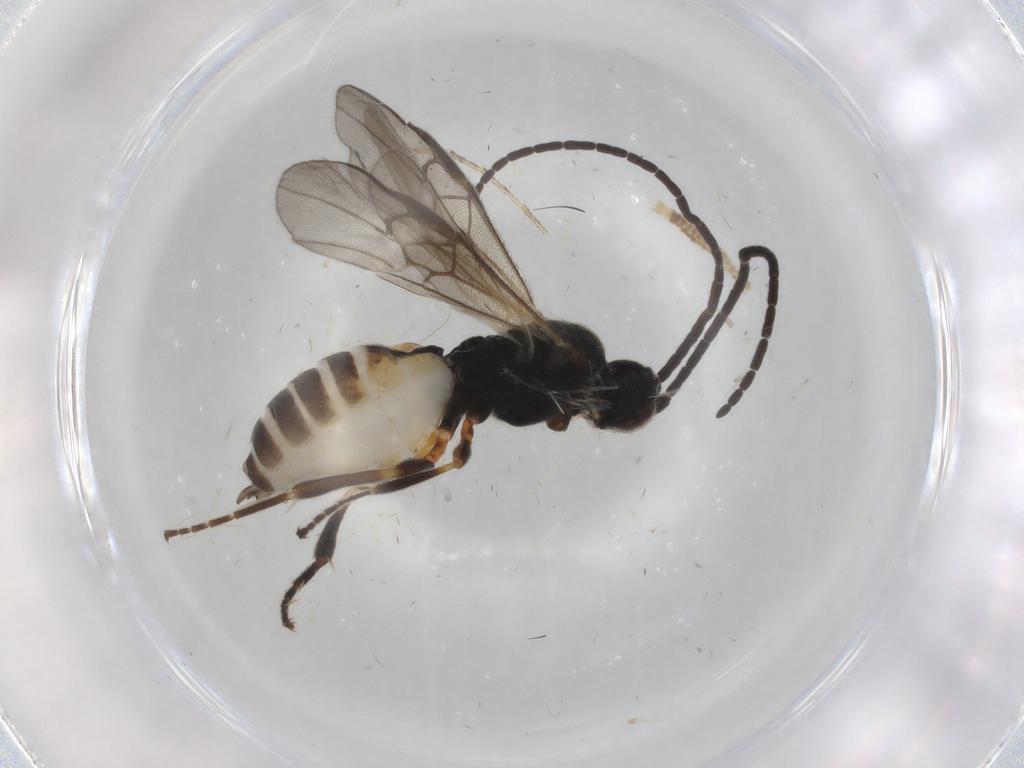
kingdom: Animalia
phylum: Arthropoda
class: Insecta
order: Hymenoptera
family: Braconidae
